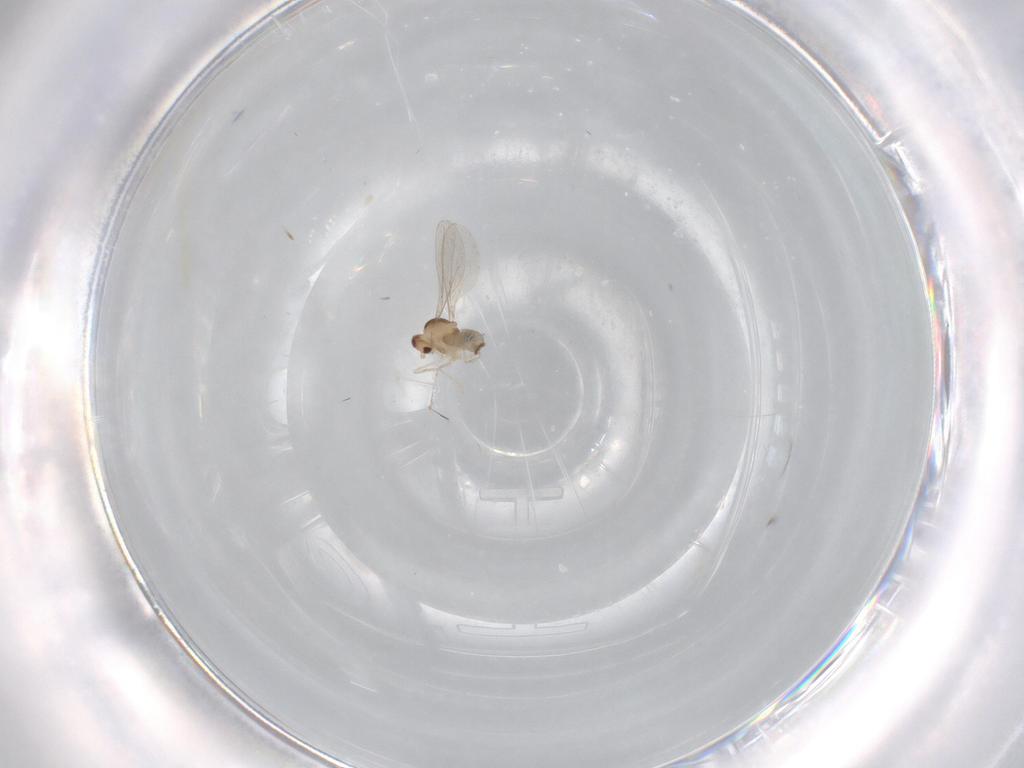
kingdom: Animalia
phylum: Arthropoda
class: Insecta
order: Diptera
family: Cecidomyiidae
